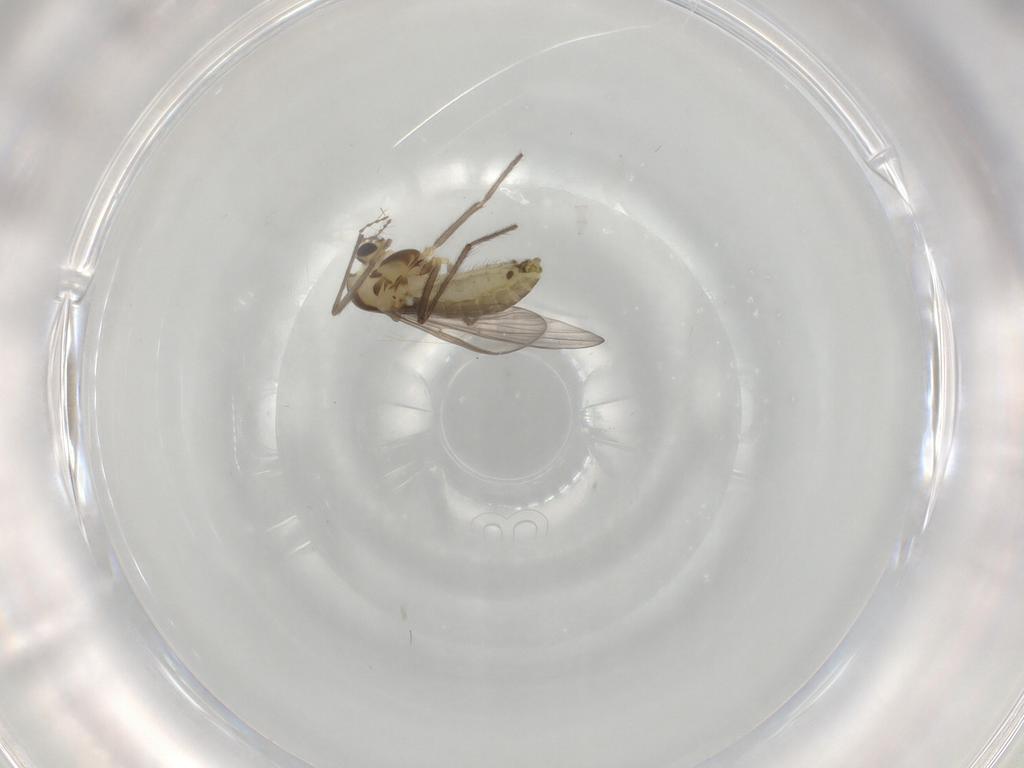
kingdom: Animalia
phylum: Arthropoda
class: Insecta
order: Diptera
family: Chironomidae
